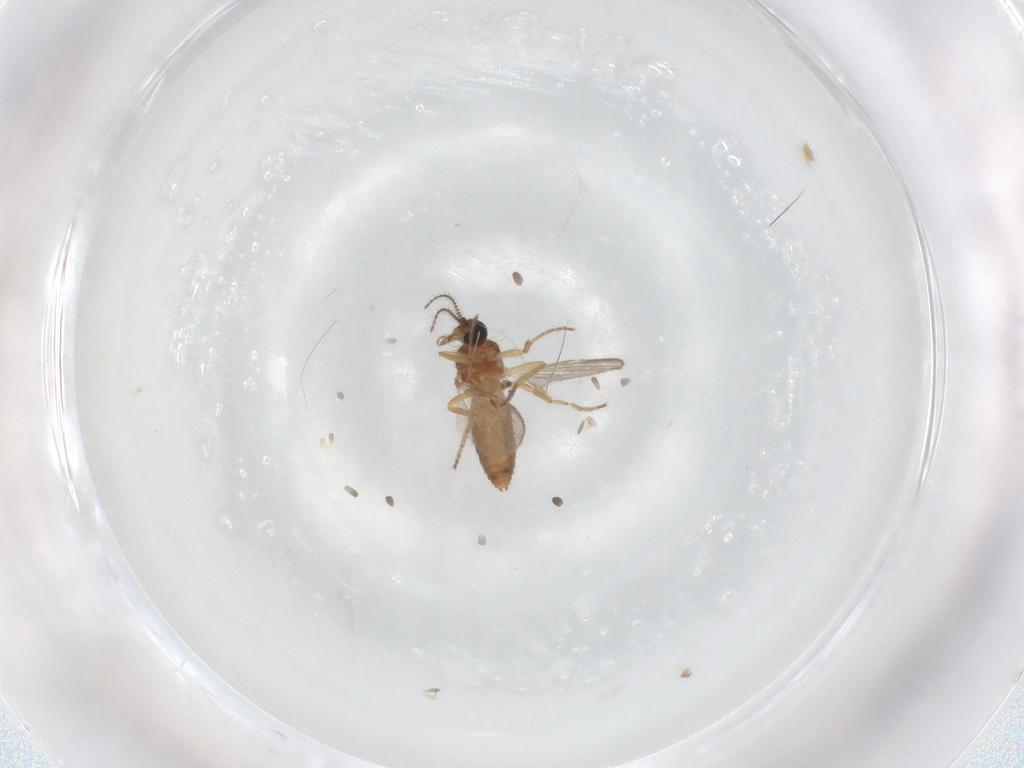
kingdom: Animalia
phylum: Arthropoda
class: Insecta
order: Diptera
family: Ceratopogonidae
